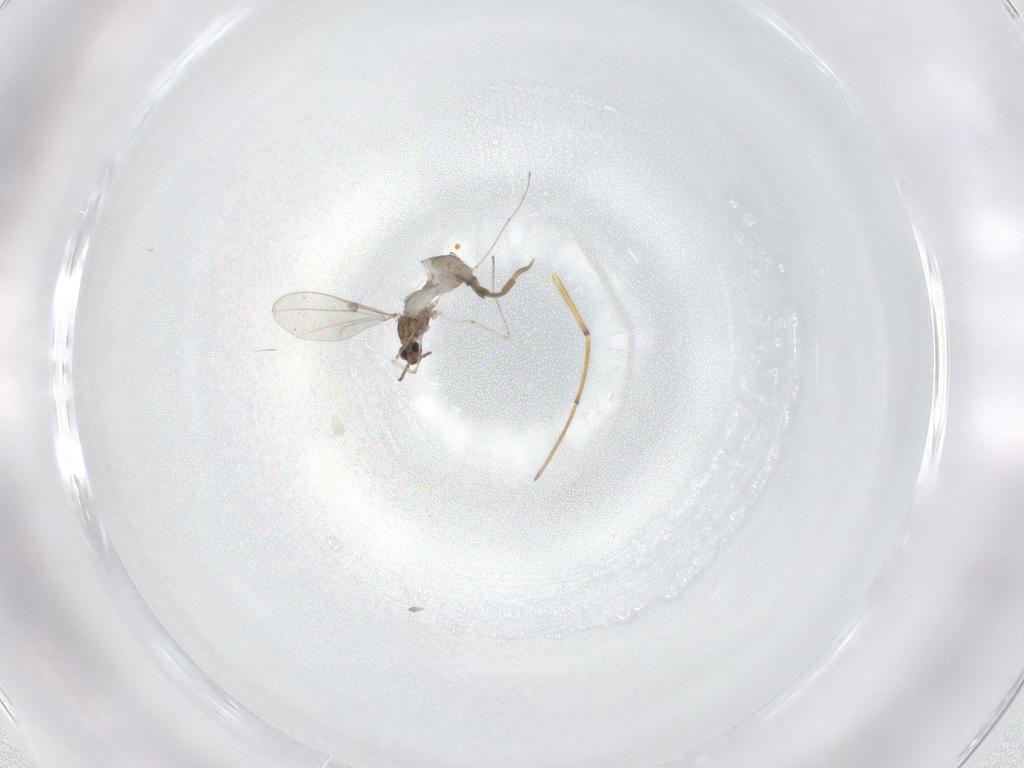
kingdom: Animalia
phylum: Arthropoda
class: Insecta
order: Diptera
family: Cecidomyiidae
